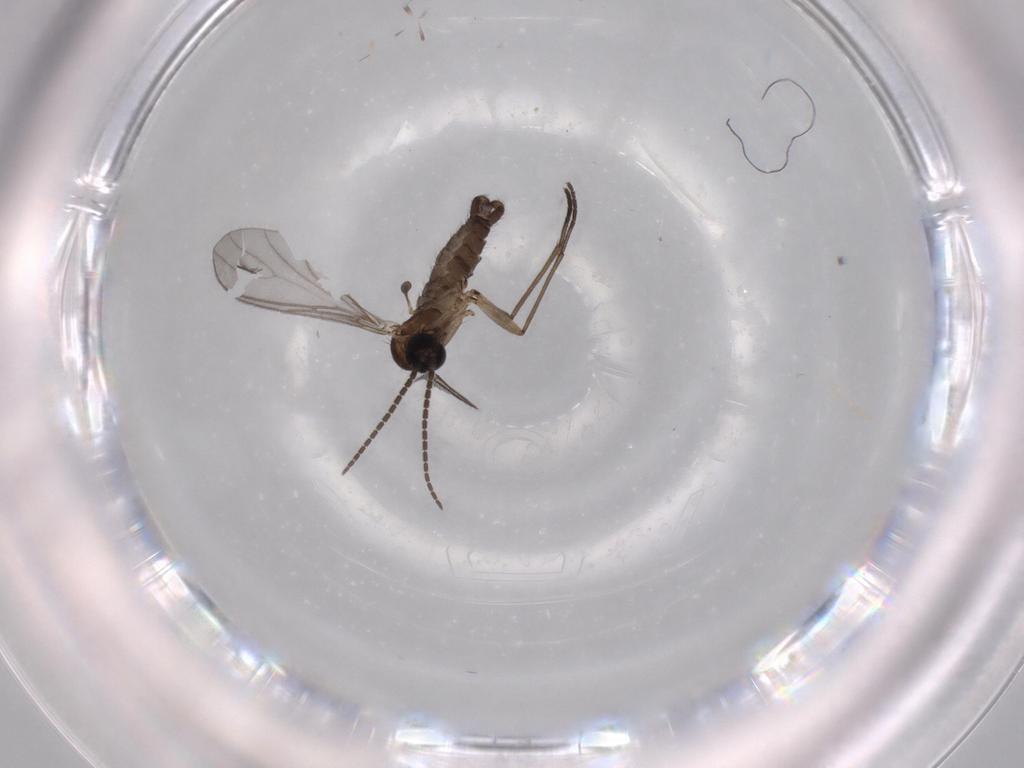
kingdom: Animalia
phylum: Arthropoda
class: Insecta
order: Diptera
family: Sciaridae
